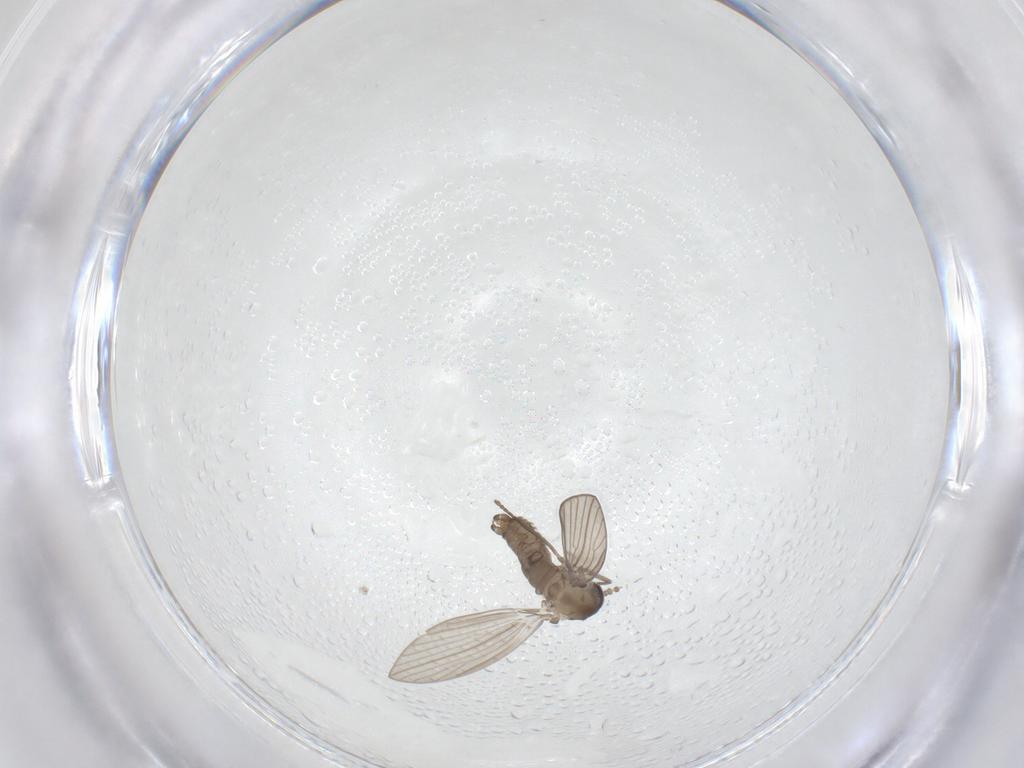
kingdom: Animalia
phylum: Arthropoda
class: Insecta
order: Diptera
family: Psychodidae
